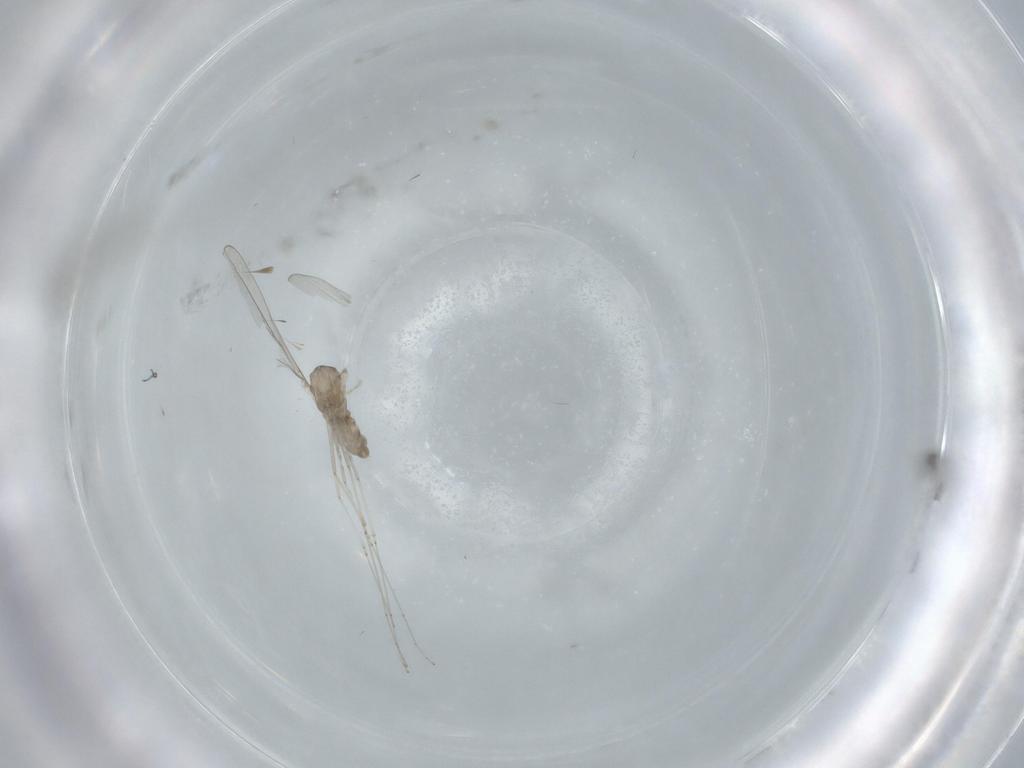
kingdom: Animalia
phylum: Arthropoda
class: Insecta
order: Diptera
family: Cecidomyiidae
